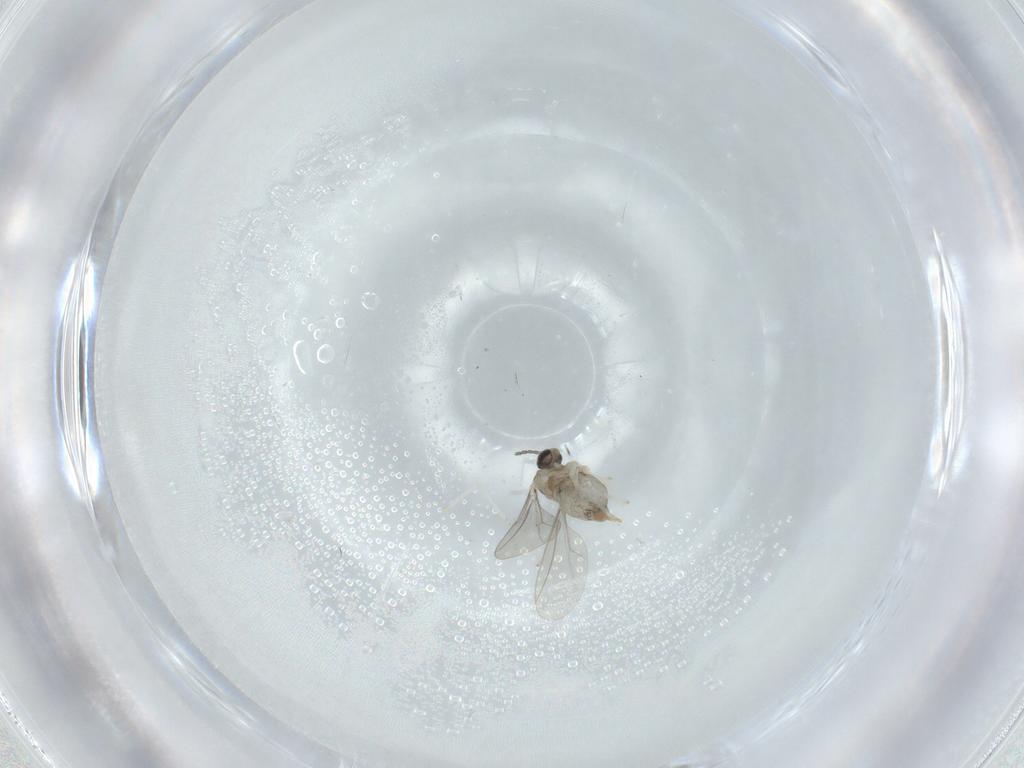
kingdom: Animalia
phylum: Arthropoda
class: Insecta
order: Diptera
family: Cecidomyiidae
